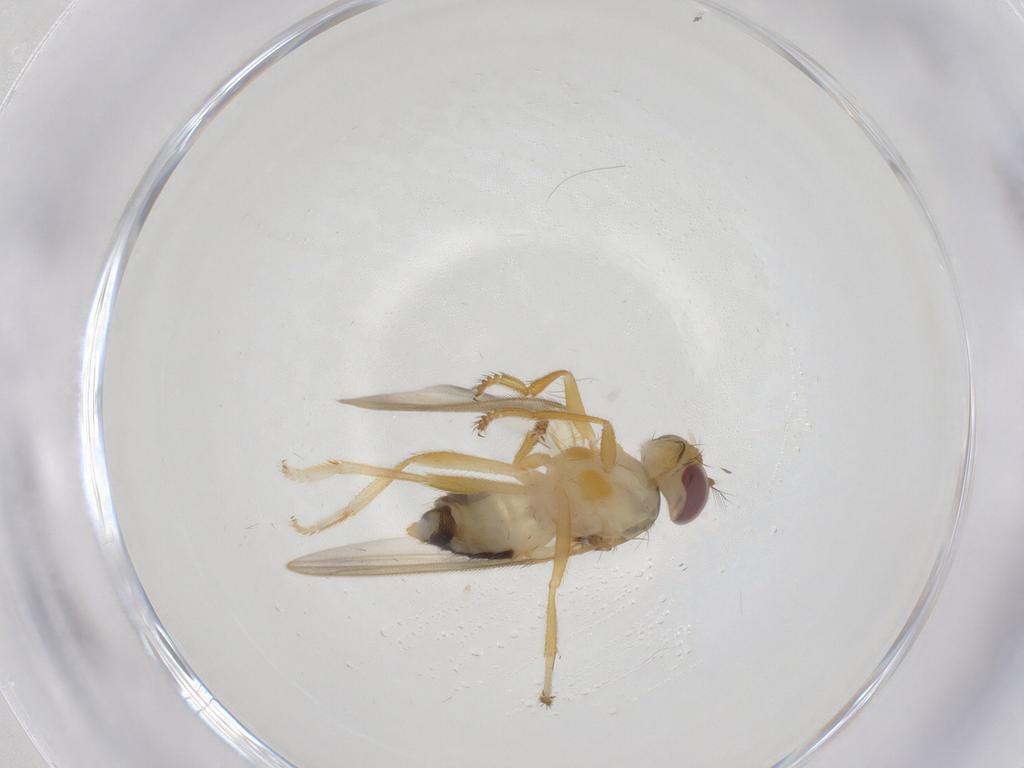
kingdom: Animalia
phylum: Arthropoda
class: Insecta
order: Diptera
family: Periscelididae
